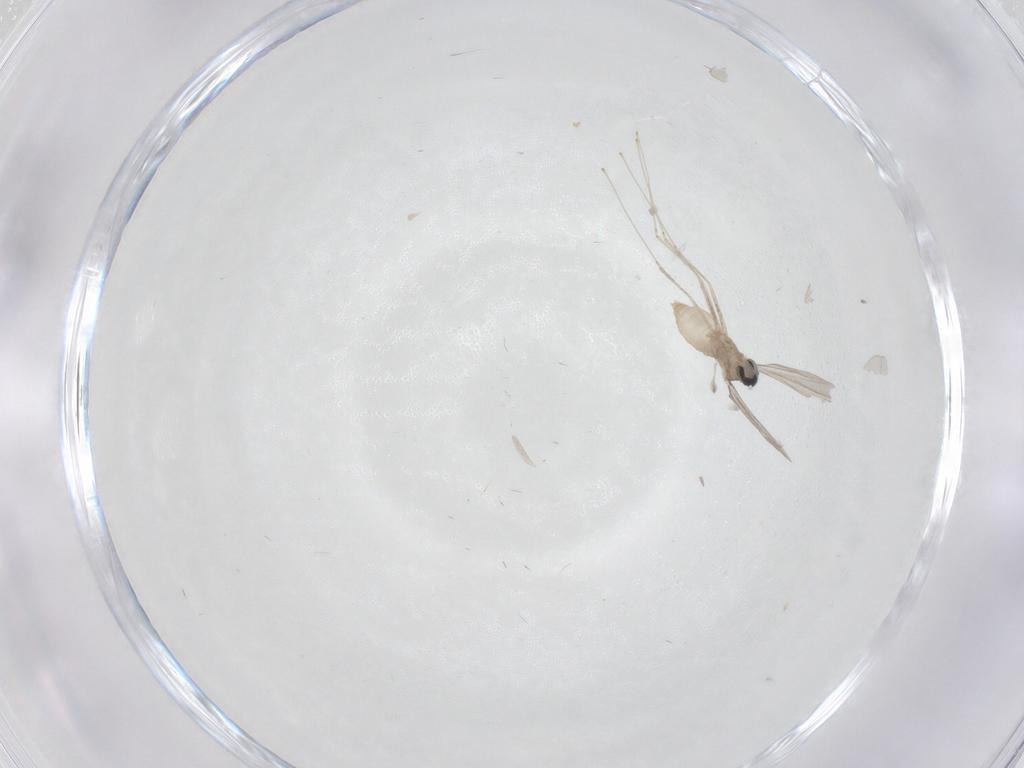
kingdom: Animalia
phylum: Arthropoda
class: Insecta
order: Diptera
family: Cecidomyiidae
